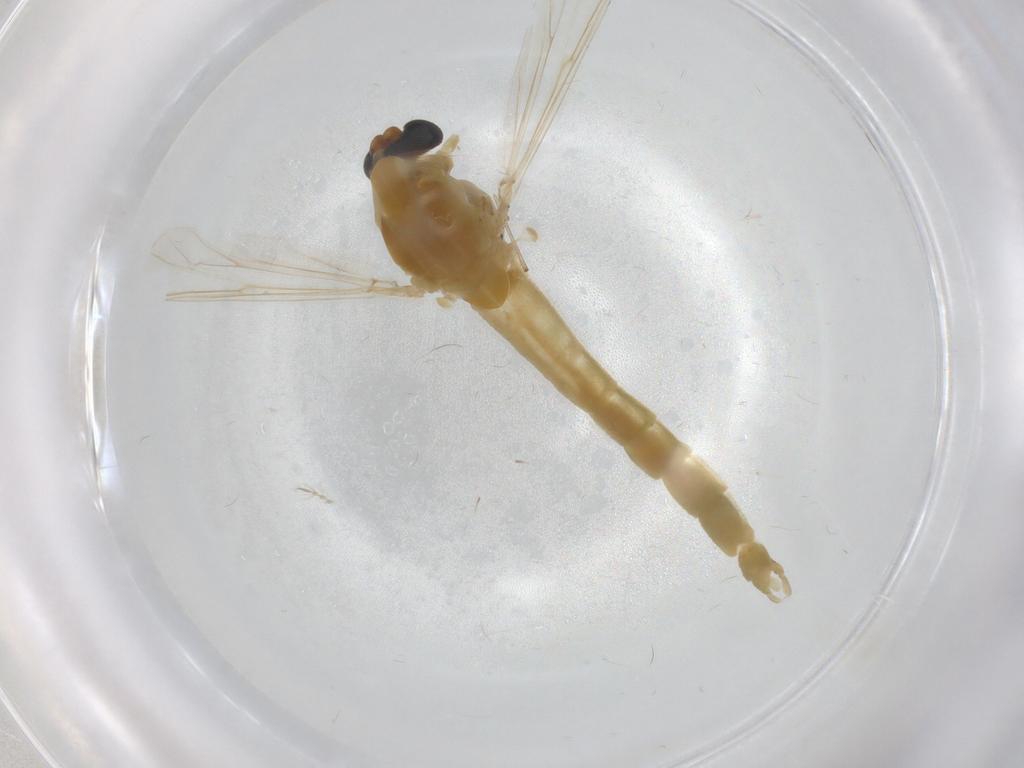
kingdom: Animalia
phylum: Arthropoda
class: Insecta
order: Diptera
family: Chironomidae
